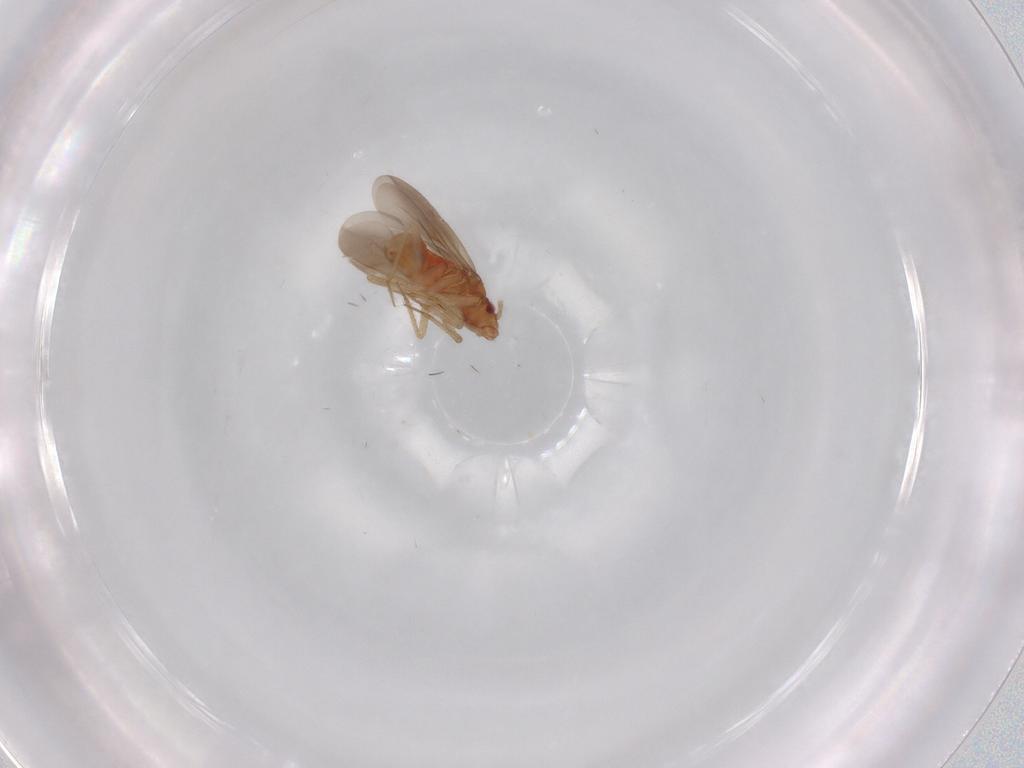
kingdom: Animalia
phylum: Arthropoda
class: Insecta
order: Hemiptera
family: Ceratocombidae
